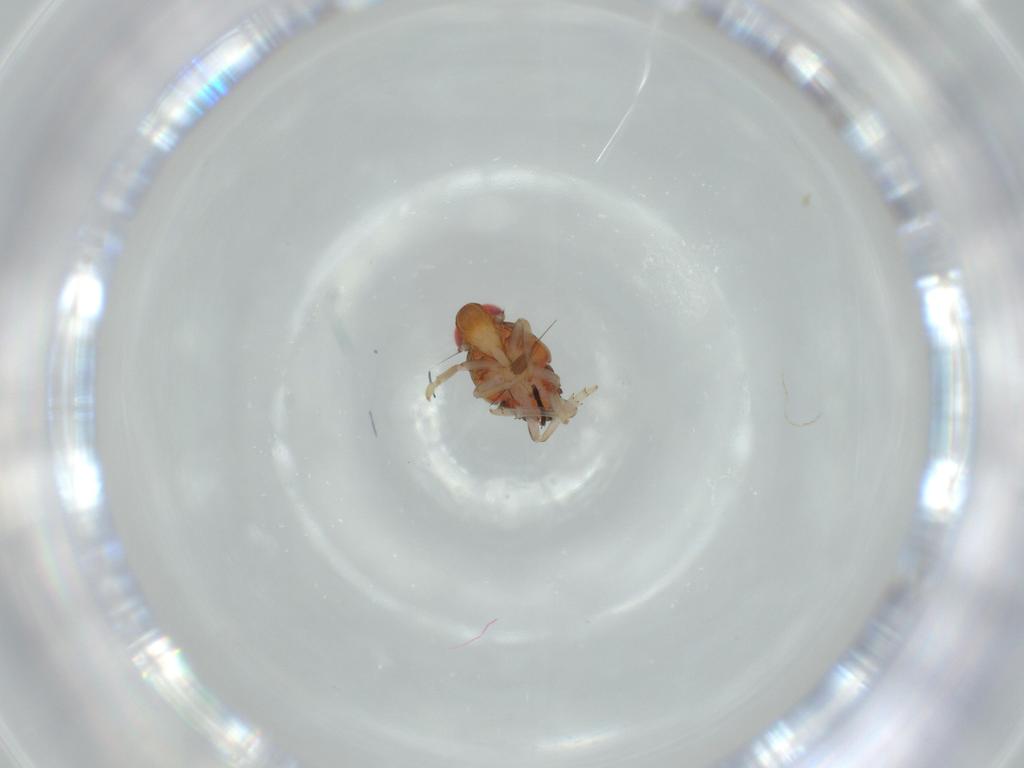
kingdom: Animalia
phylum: Arthropoda
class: Insecta
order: Hemiptera
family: Issidae
